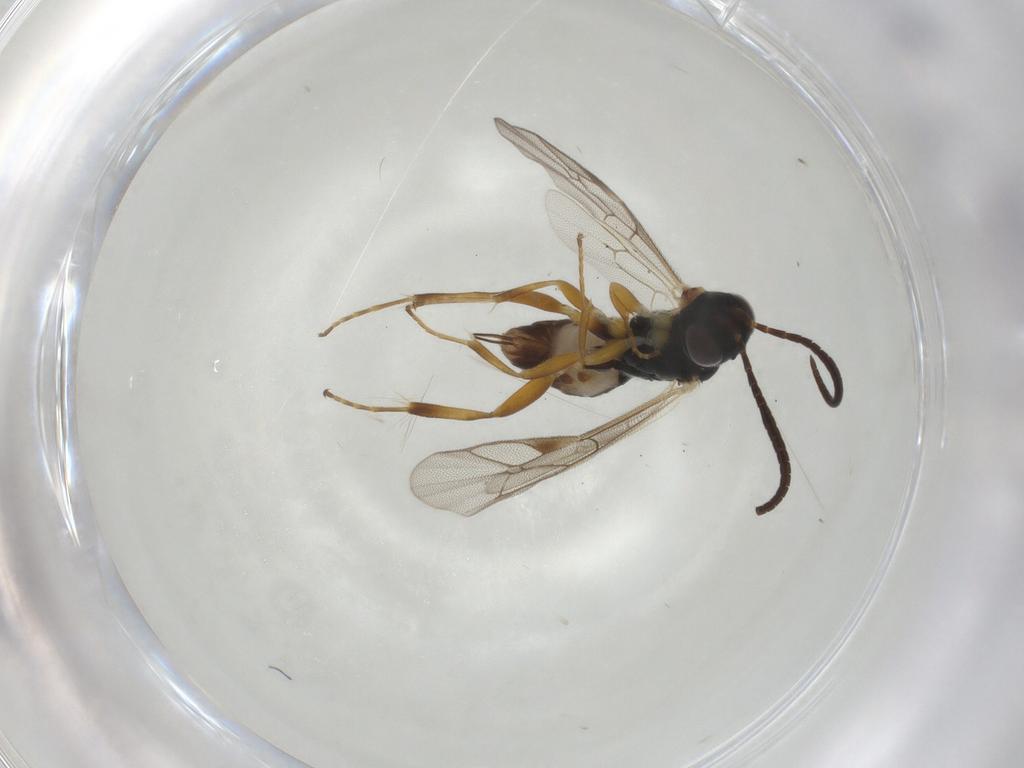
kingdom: Animalia
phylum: Arthropoda
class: Insecta
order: Hymenoptera
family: Ichneumonidae
